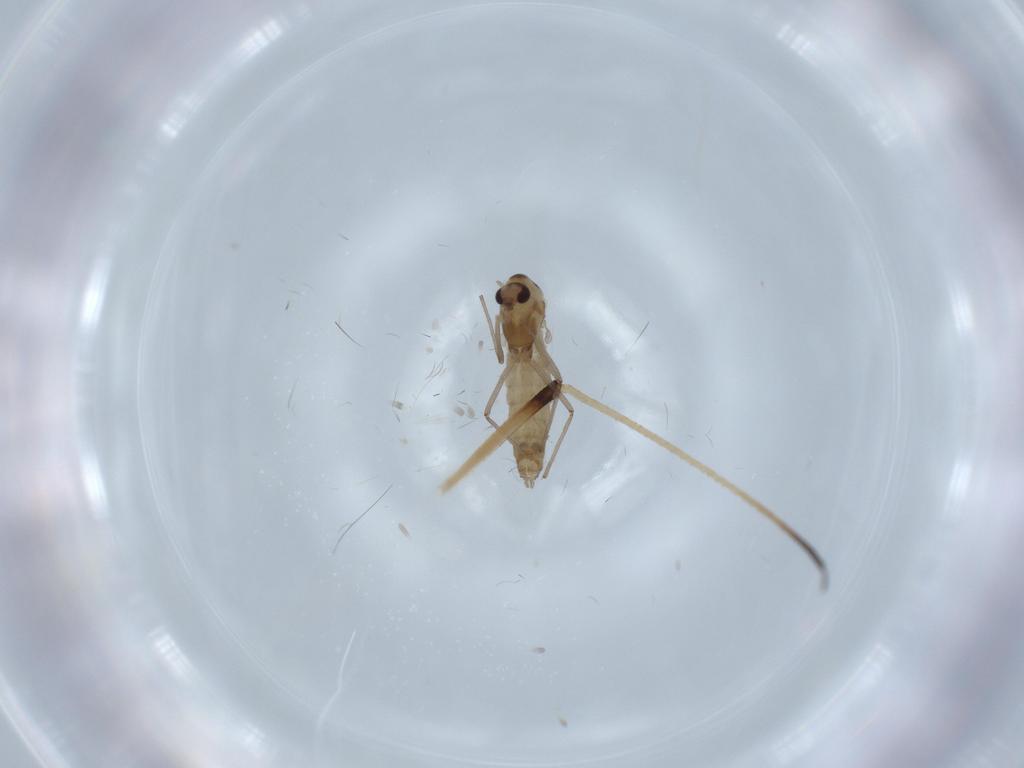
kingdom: Animalia
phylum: Arthropoda
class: Insecta
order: Diptera
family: Chironomidae
